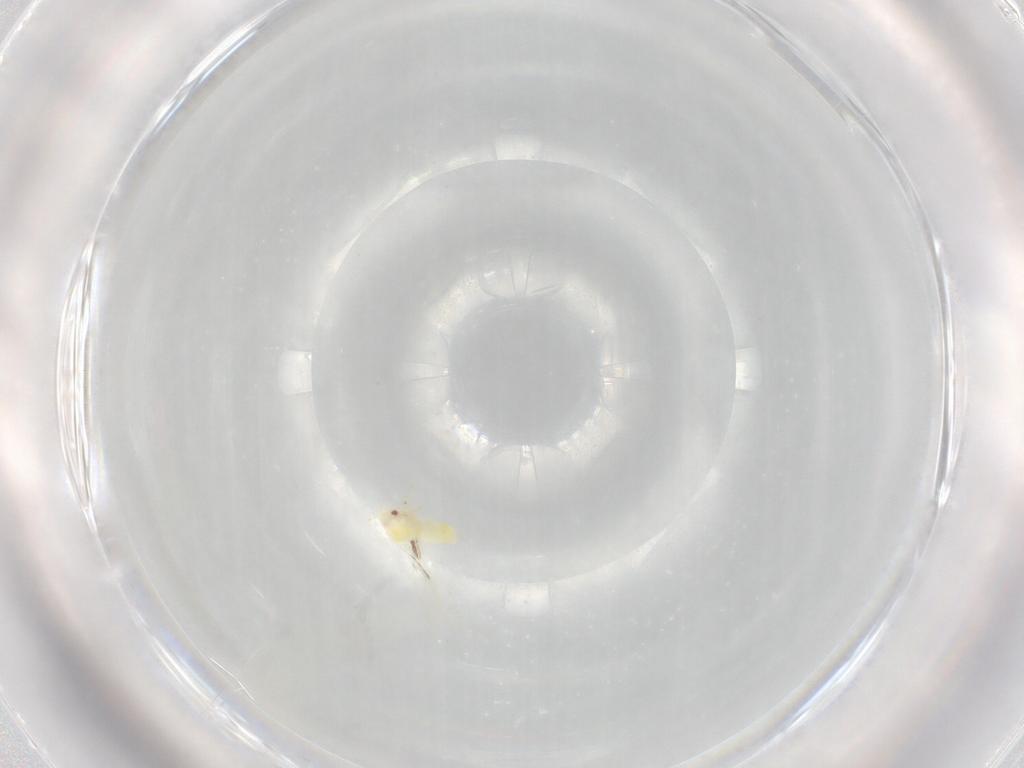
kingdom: Animalia
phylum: Arthropoda
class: Insecta
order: Hemiptera
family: Aleyrodidae
